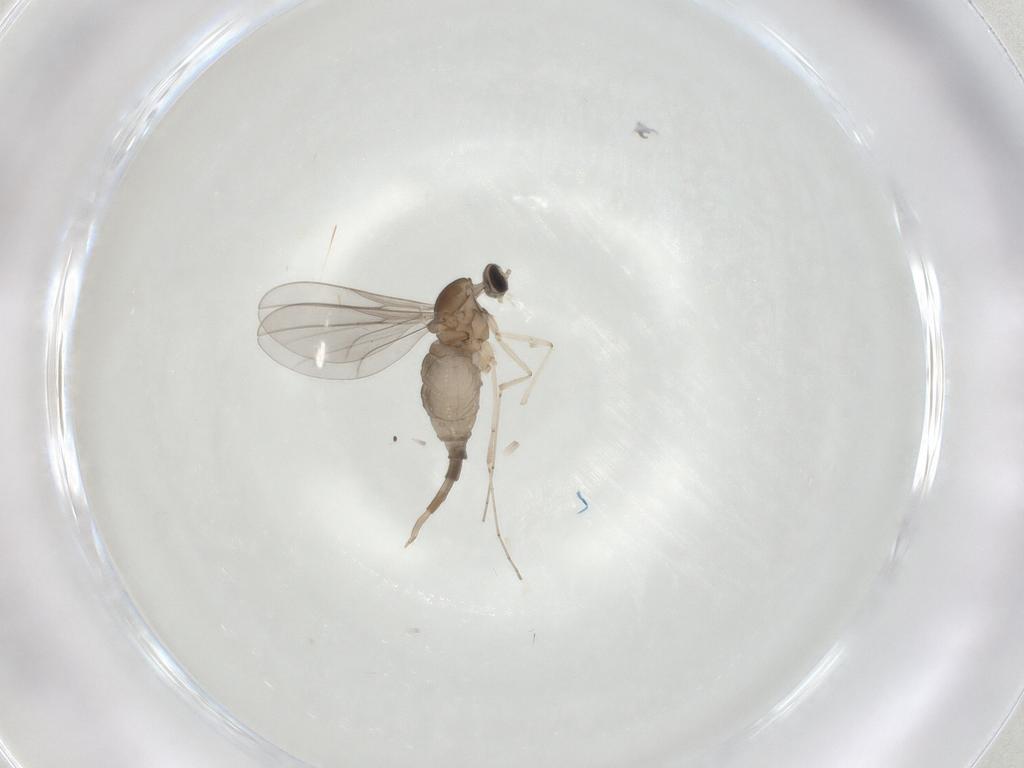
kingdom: Animalia
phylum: Arthropoda
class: Insecta
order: Diptera
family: Cecidomyiidae
